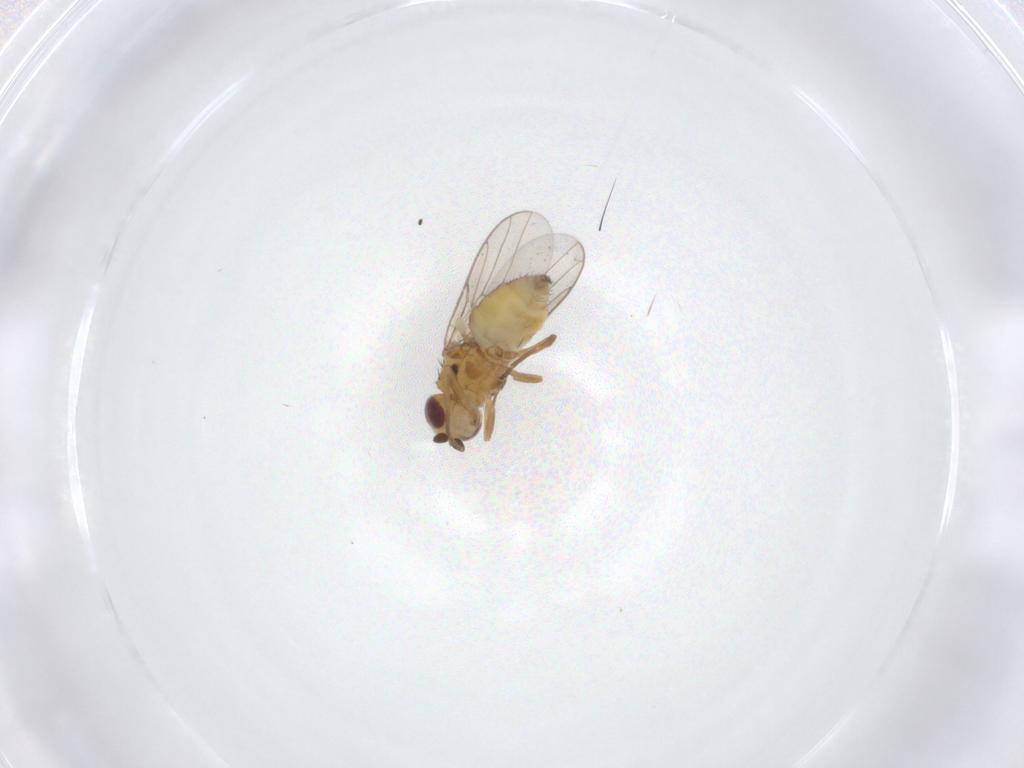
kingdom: Animalia
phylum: Arthropoda
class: Insecta
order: Diptera
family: Chloropidae
